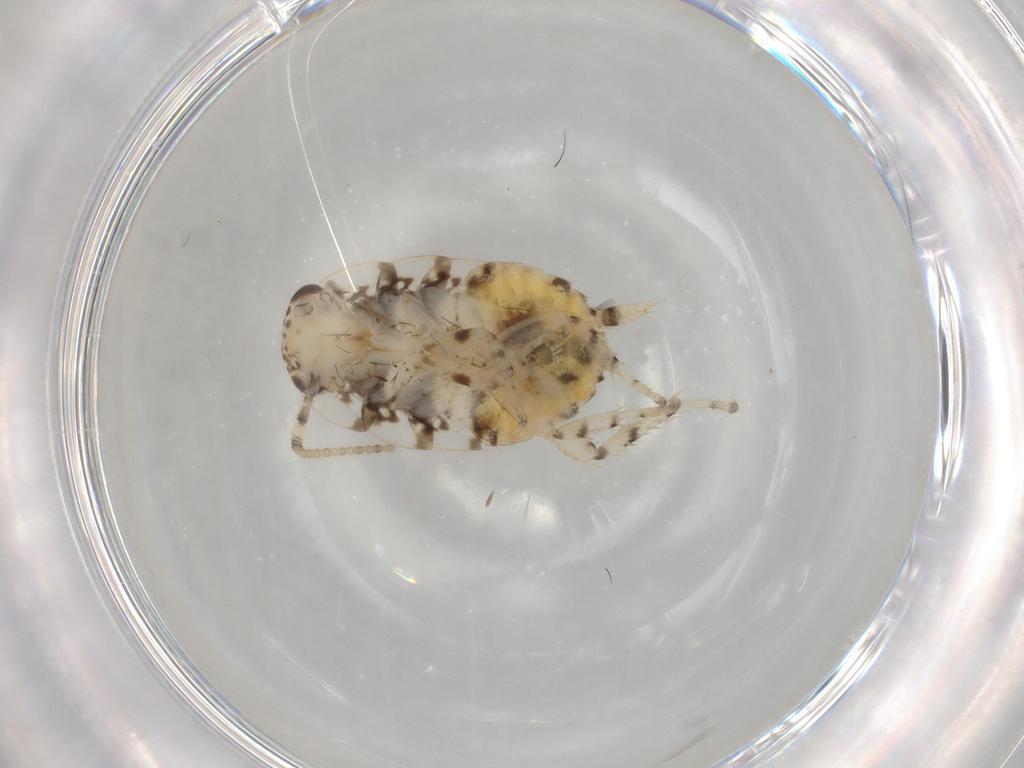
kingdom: Animalia
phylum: Arthropoda
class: Insecta
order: Blattodea
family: Ectobiidae
